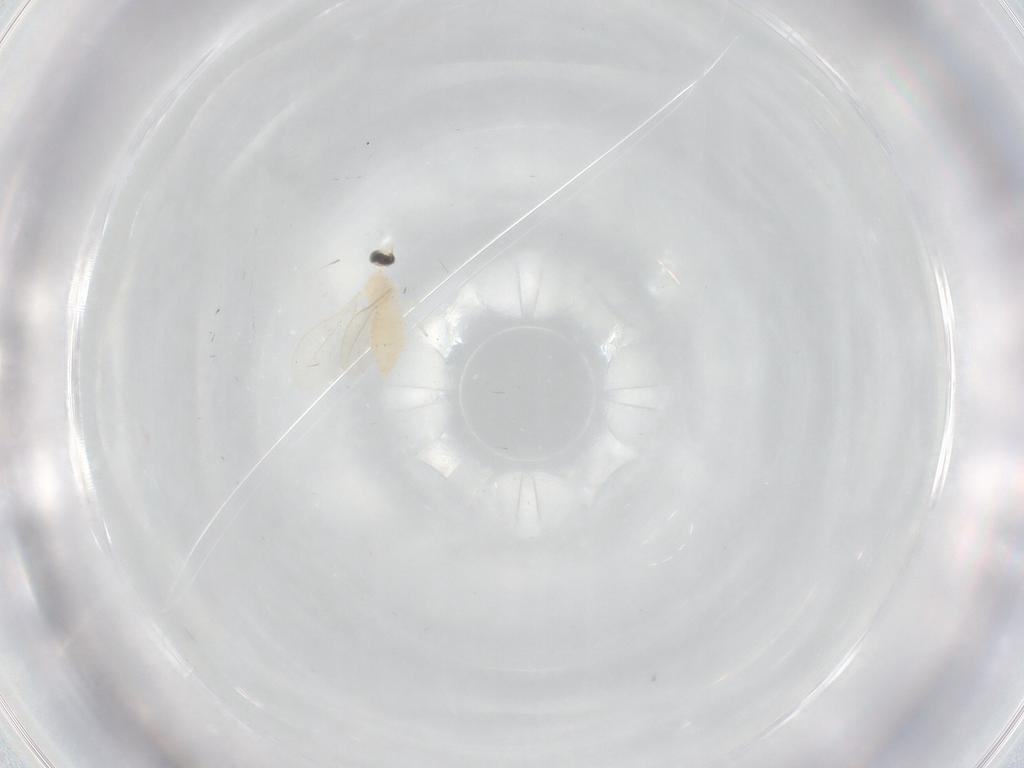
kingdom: Animalia
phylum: Arthropoda
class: Insecta
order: Diptera
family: Cecidomyiidae
